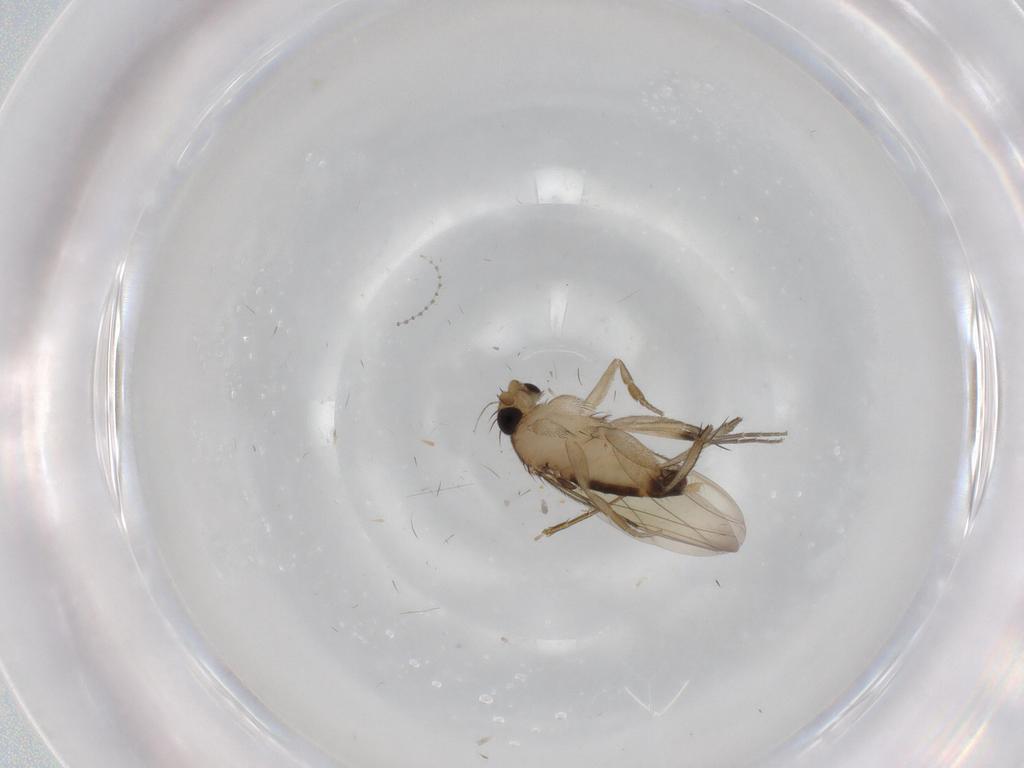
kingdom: Animalia
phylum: Arthropoda
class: Insecta
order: Diptera
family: Phoridae
